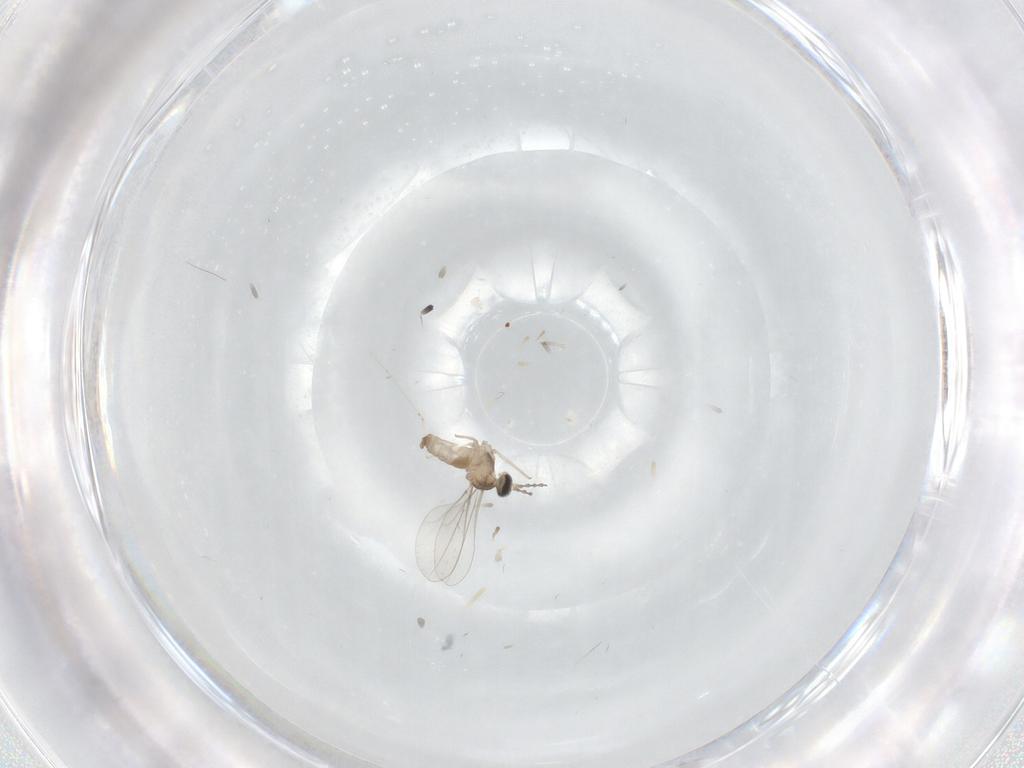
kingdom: Animalia
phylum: Arthropoda
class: Insecta
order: Diptera
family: Cecidomyiidae
